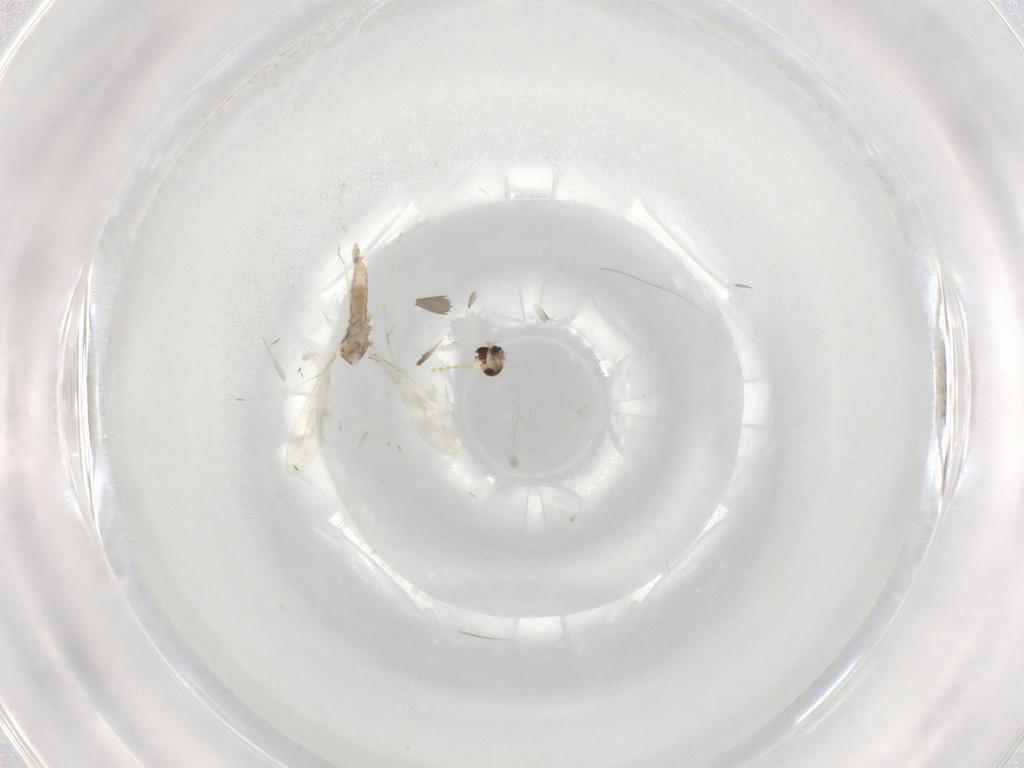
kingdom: Animalia
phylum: Arthropoda
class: Insecta
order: Diptera
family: Cecidomyiidae
